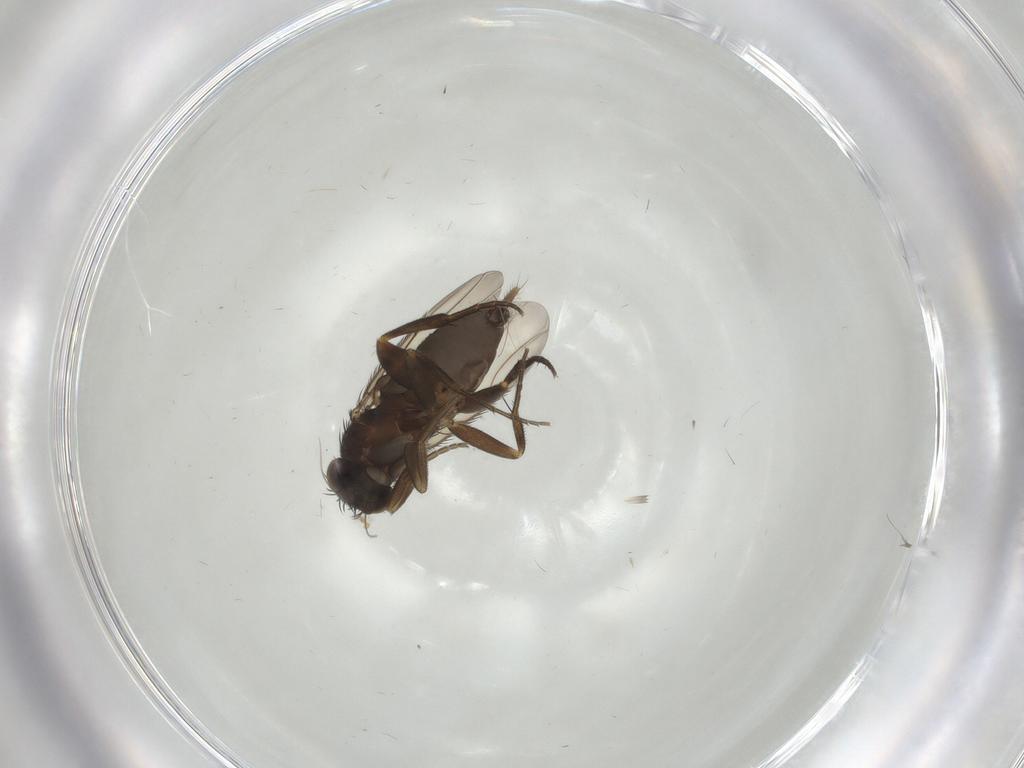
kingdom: Animalia
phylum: Arthropoda
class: Insecta
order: Diptera
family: Phoridae
